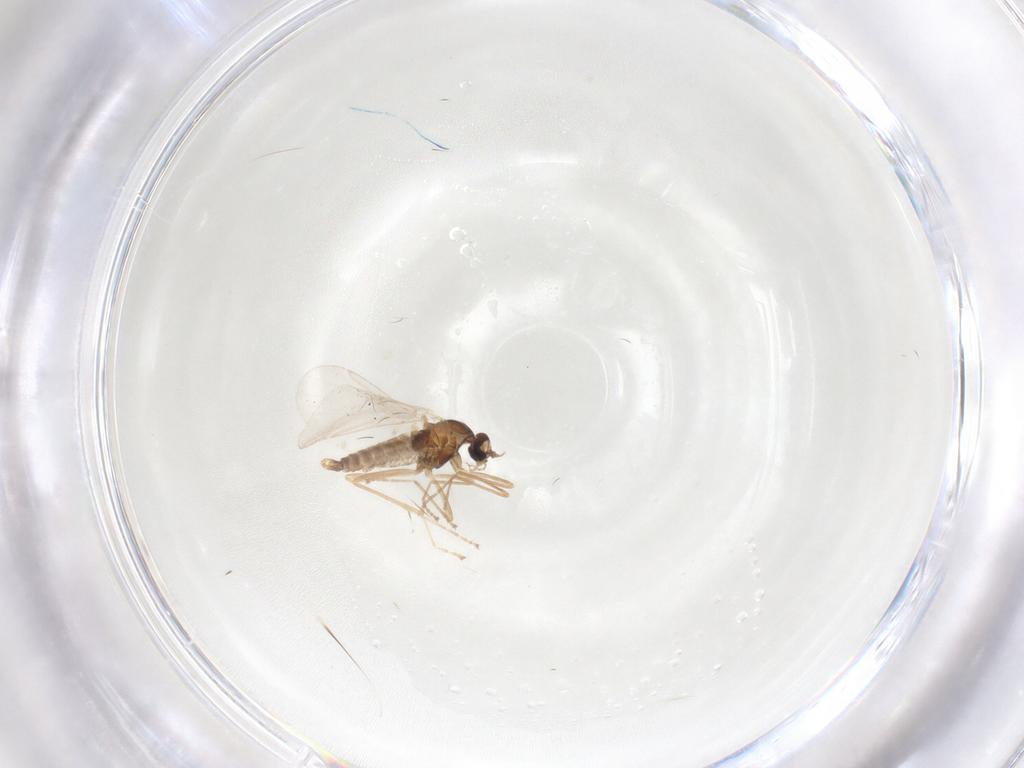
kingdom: Animalia
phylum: Arthropoda
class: Insecta
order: Diptera
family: Cecidomyiidae
